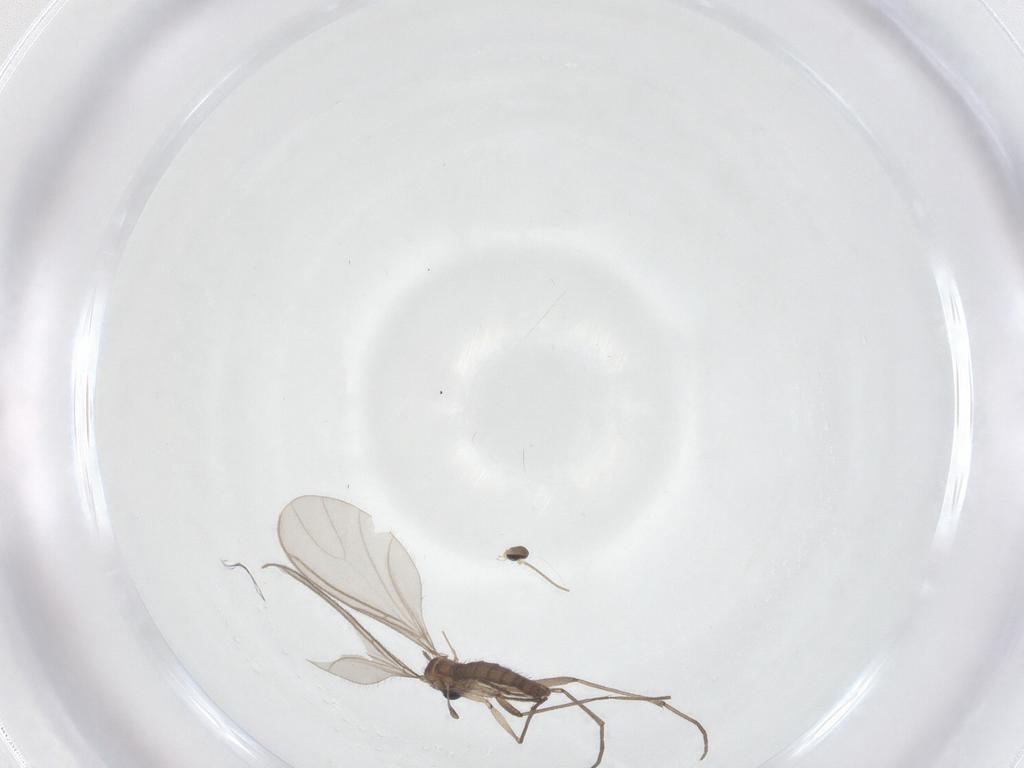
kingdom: Animalia
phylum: Arthropoda
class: Insecta
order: Diptera
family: Sciaridae
